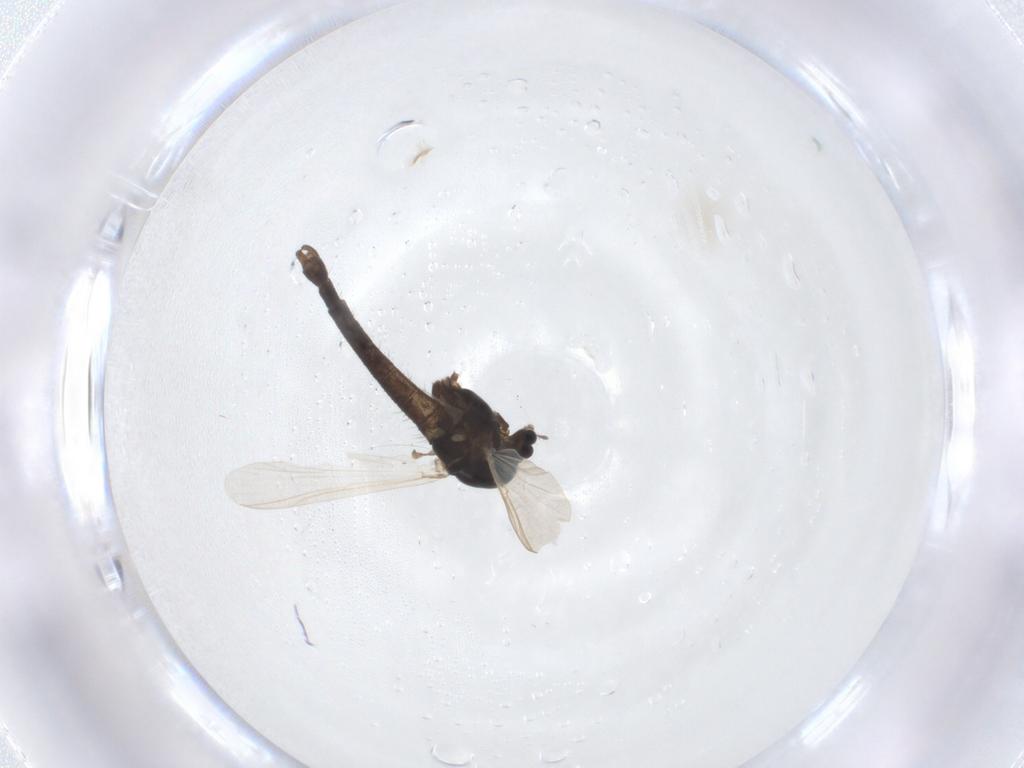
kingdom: Animalia
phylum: Arthropoda
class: Insecta
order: Diptera
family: Chironomidae
